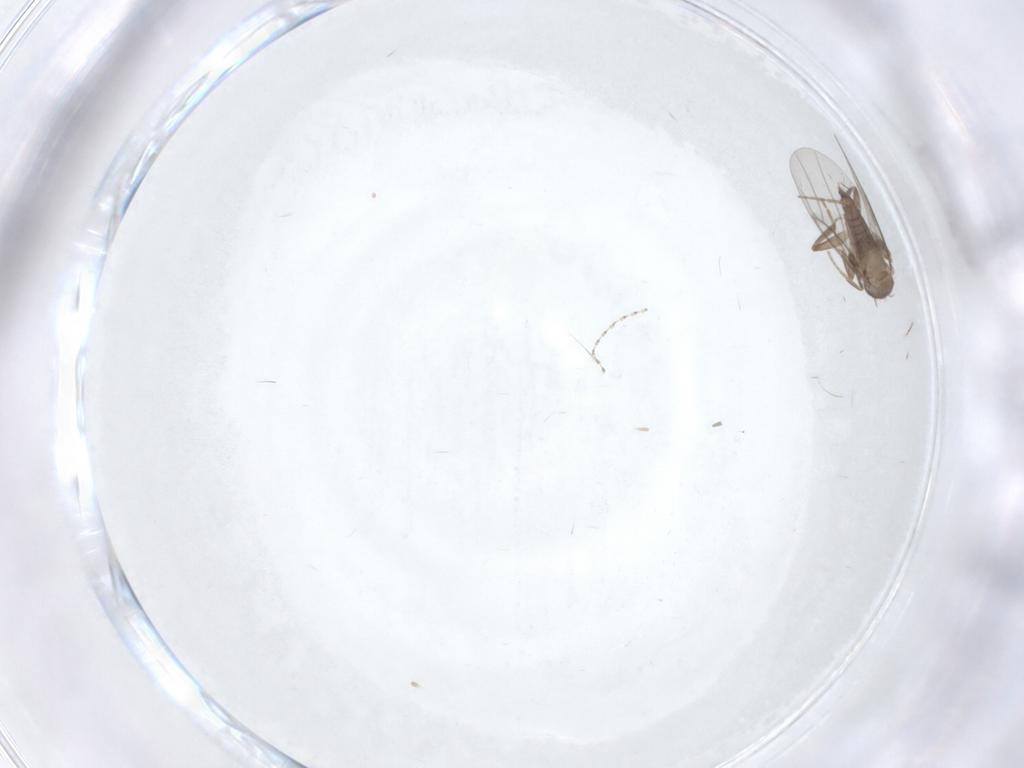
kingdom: Animalia
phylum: Arthropoda
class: Insecta
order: Diptera
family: Cecidomyiidae
